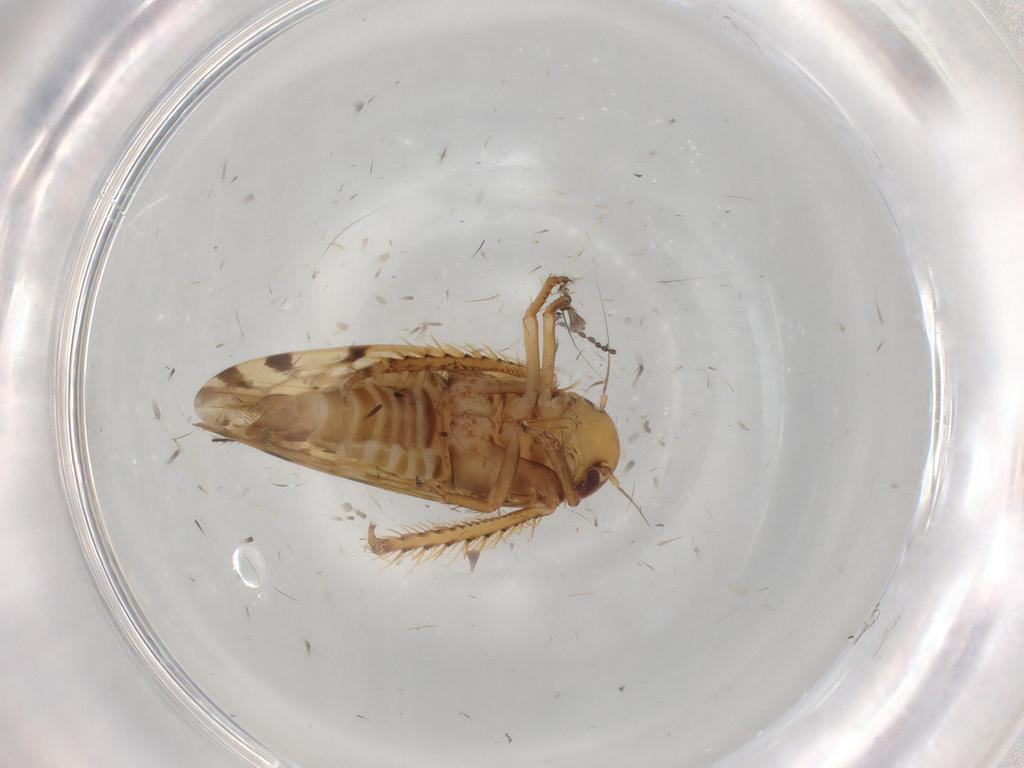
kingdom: Animalia
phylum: Arthropoda
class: Insecta
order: Hemiptera
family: Cicadellidae
